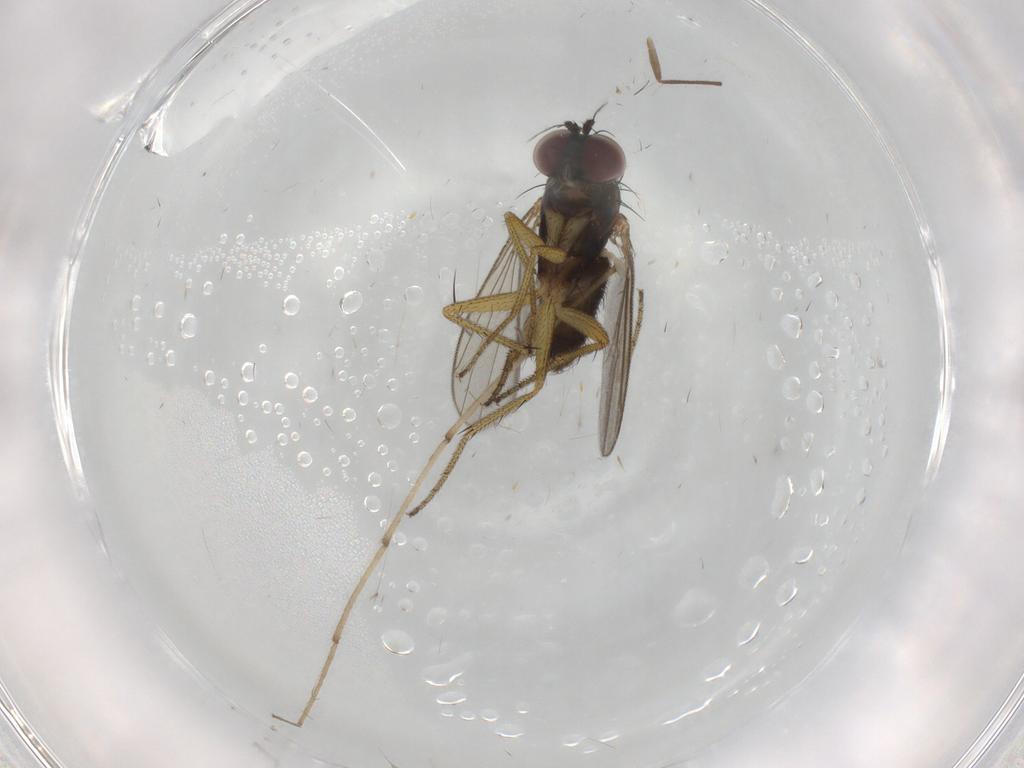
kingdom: Animalia
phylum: Arthropoda
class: Insecta
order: Diptera
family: Chironomidae
